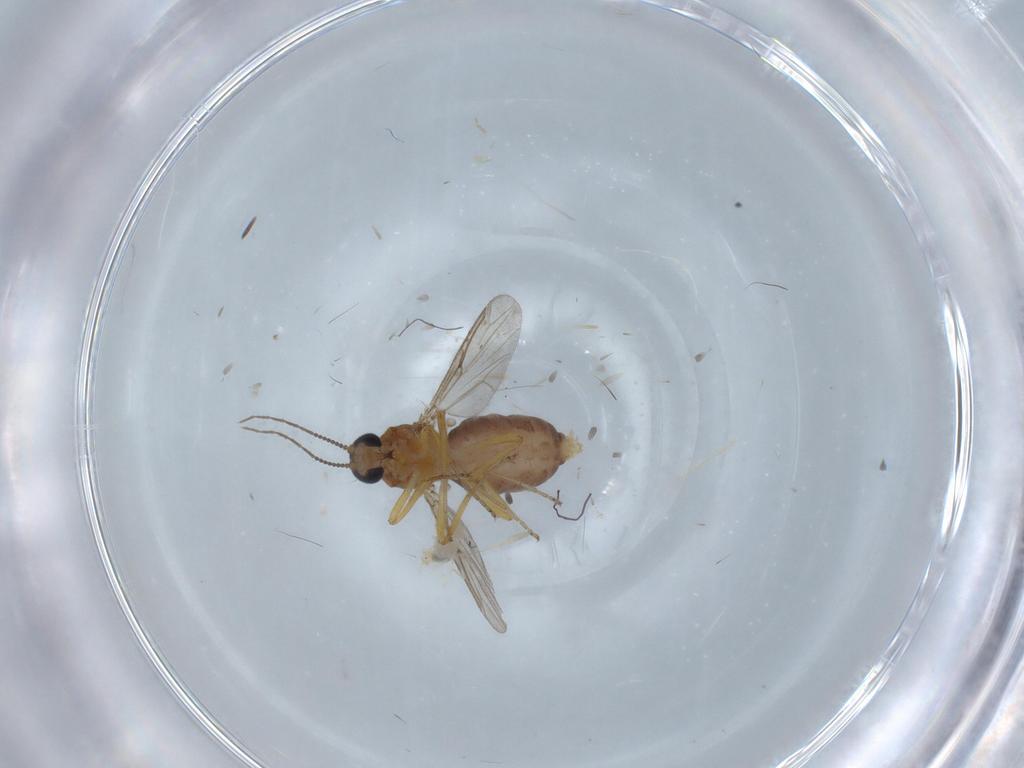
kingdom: Animalia
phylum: Arthropoda
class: Insecta
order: Diptera
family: Ceratopogonidae
